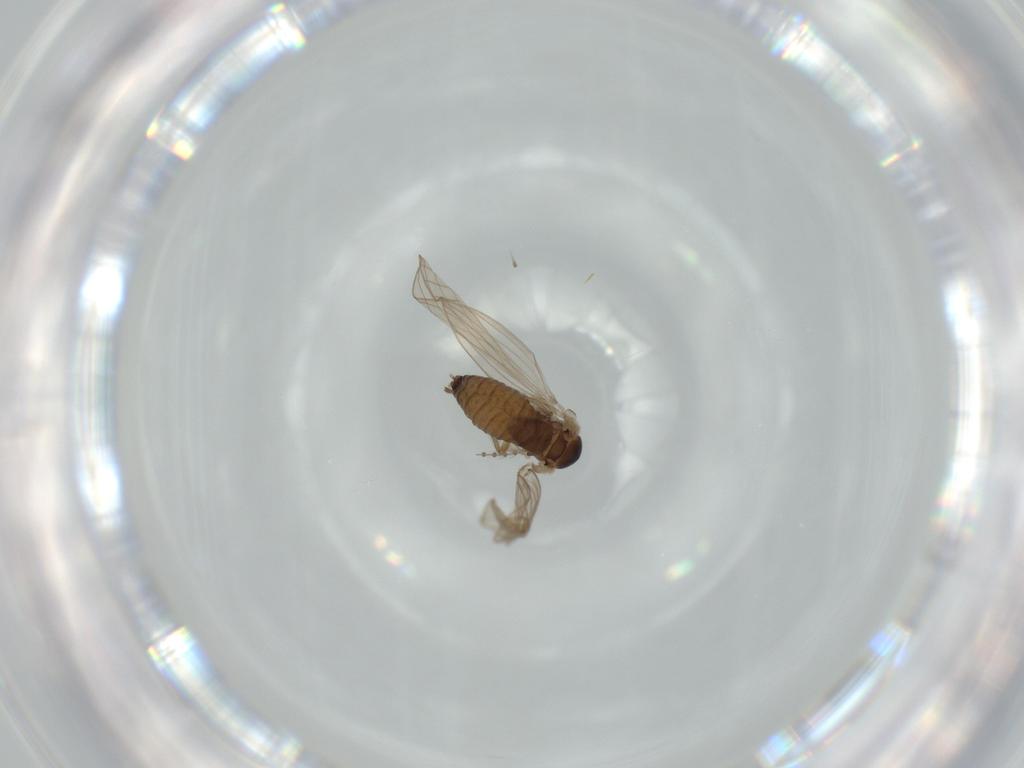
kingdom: Animalia
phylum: Arthropoda
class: Insecta
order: Diptera
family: Psychodidae
